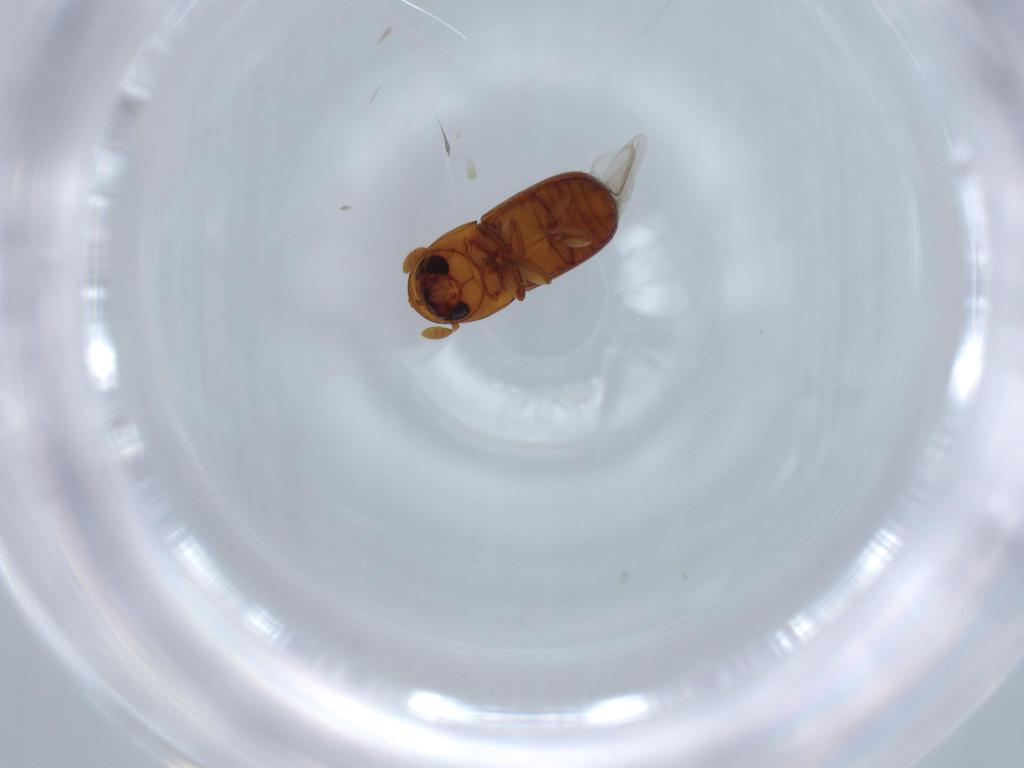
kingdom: Animalia
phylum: Arthropoda
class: Insecta
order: Coleoptera
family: Curculionidae
